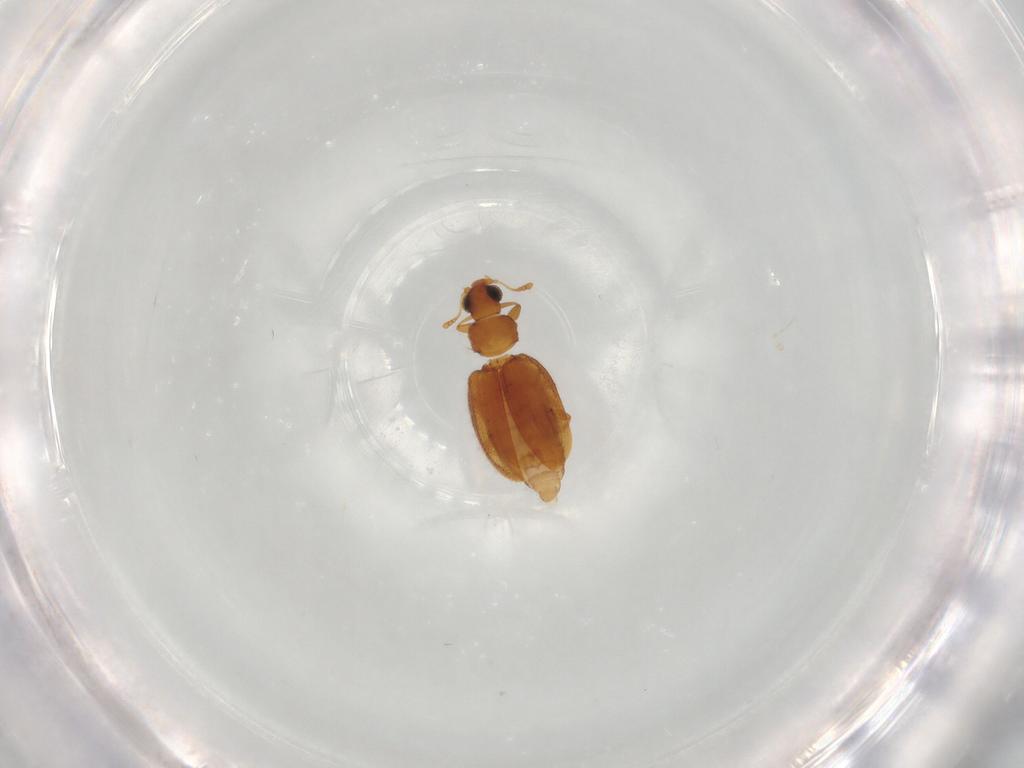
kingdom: Animalia
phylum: Arthropoda
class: Insecta
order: Coleoptera
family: Latridiidae
